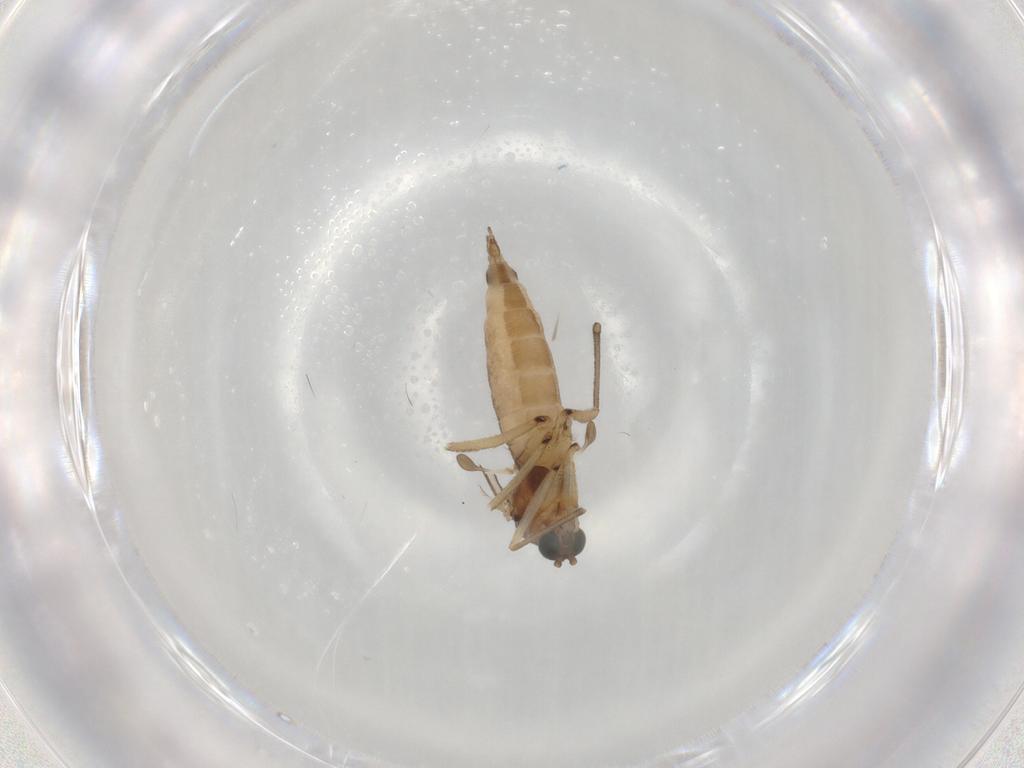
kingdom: Animalia
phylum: Arthropoda
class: Insecta
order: Diptera
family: Sciaridae
